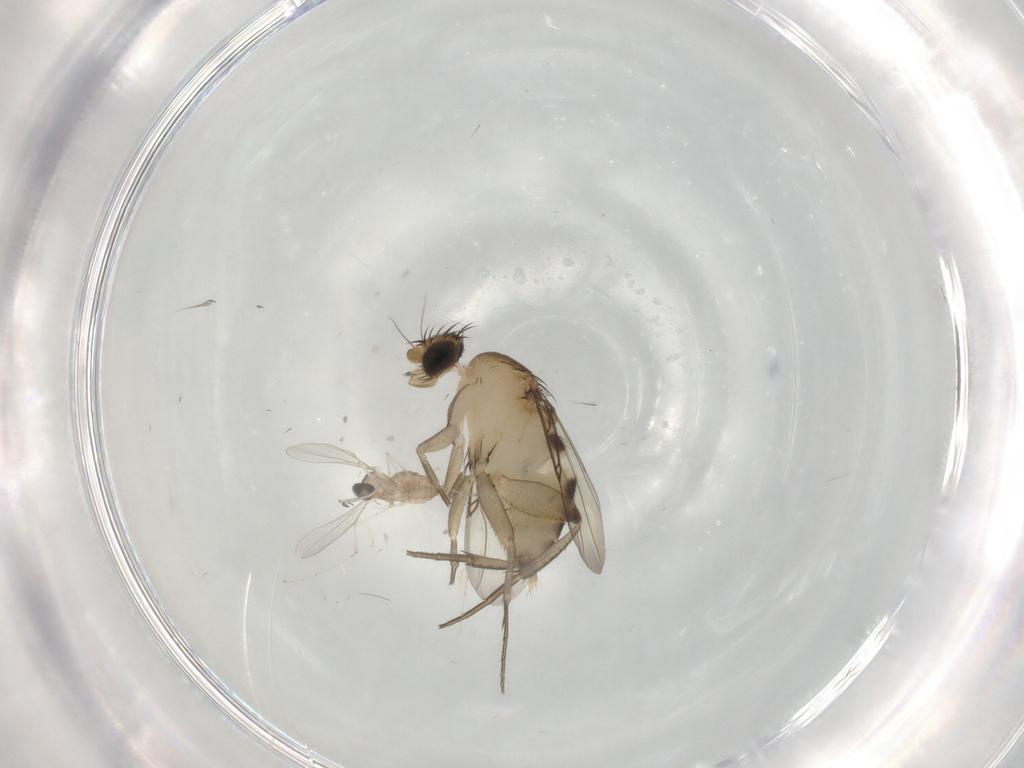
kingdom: Animalia
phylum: Arthropoda
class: Insecta
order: Diptera
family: Phoridae
